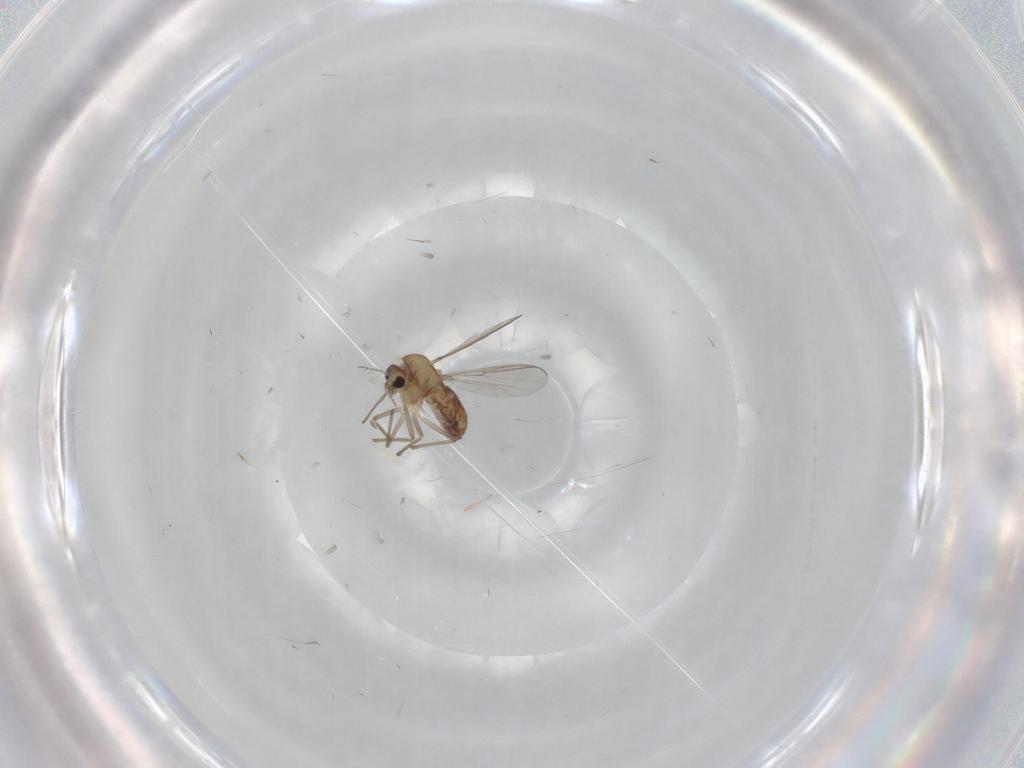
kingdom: Animalia
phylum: Arthropoda
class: Insecta
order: Diptera
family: Chironomidae
